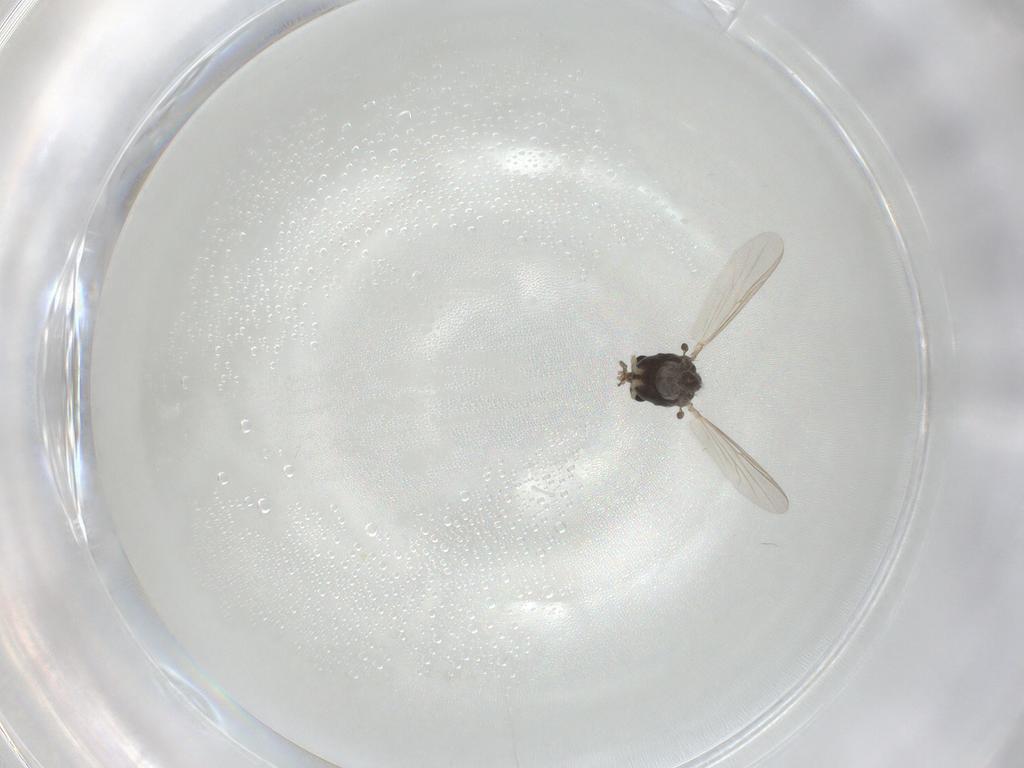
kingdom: Animalia
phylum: Arthropoda
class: Insecta
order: Diptera
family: Chironomidae
